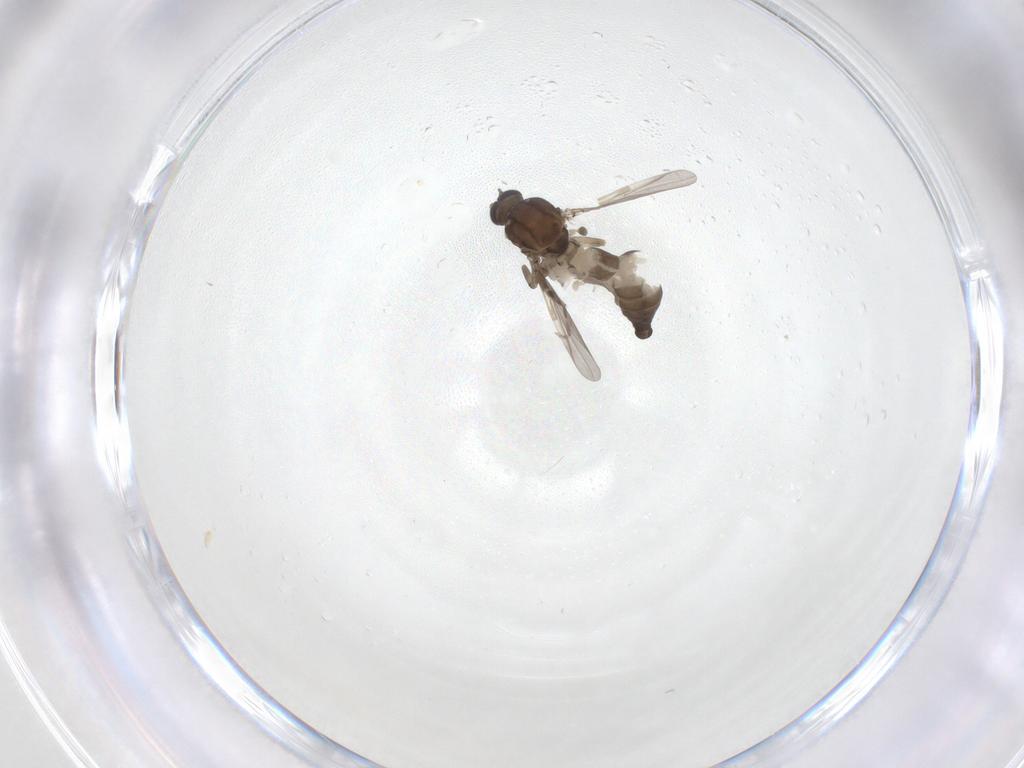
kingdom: Animalia
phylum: Arthropoda
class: Insecta
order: Diptera
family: Ceratopogonidae
